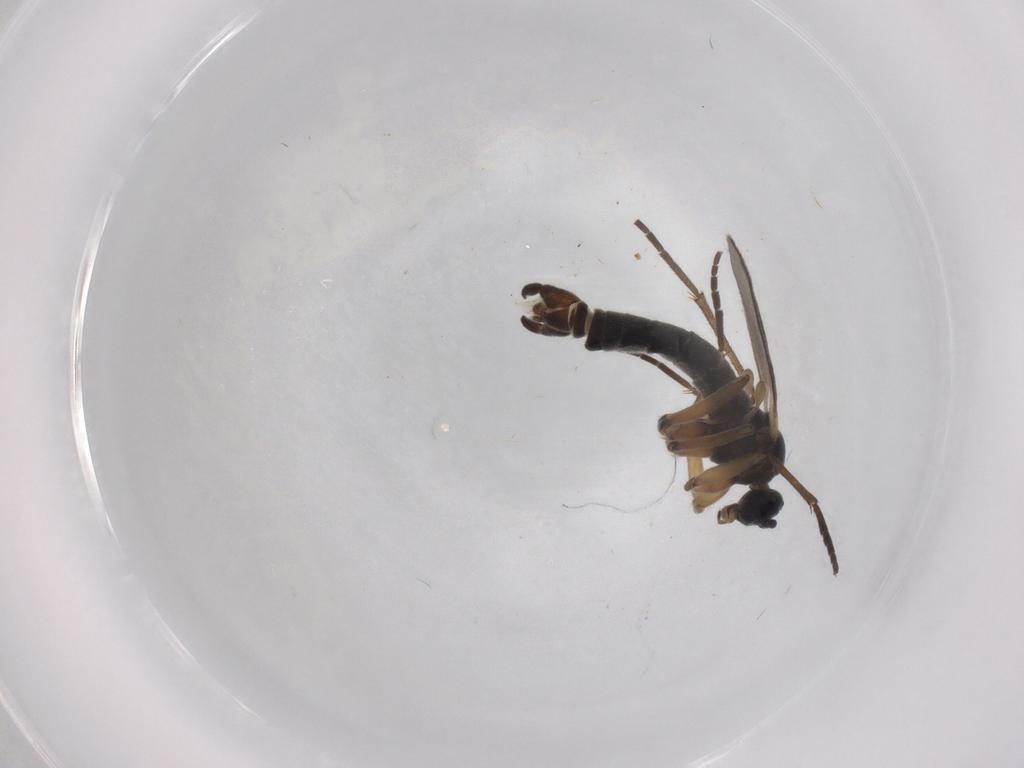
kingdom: Animalia
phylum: Arthropoda
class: Insecta
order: Diptera
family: Sciaridae
